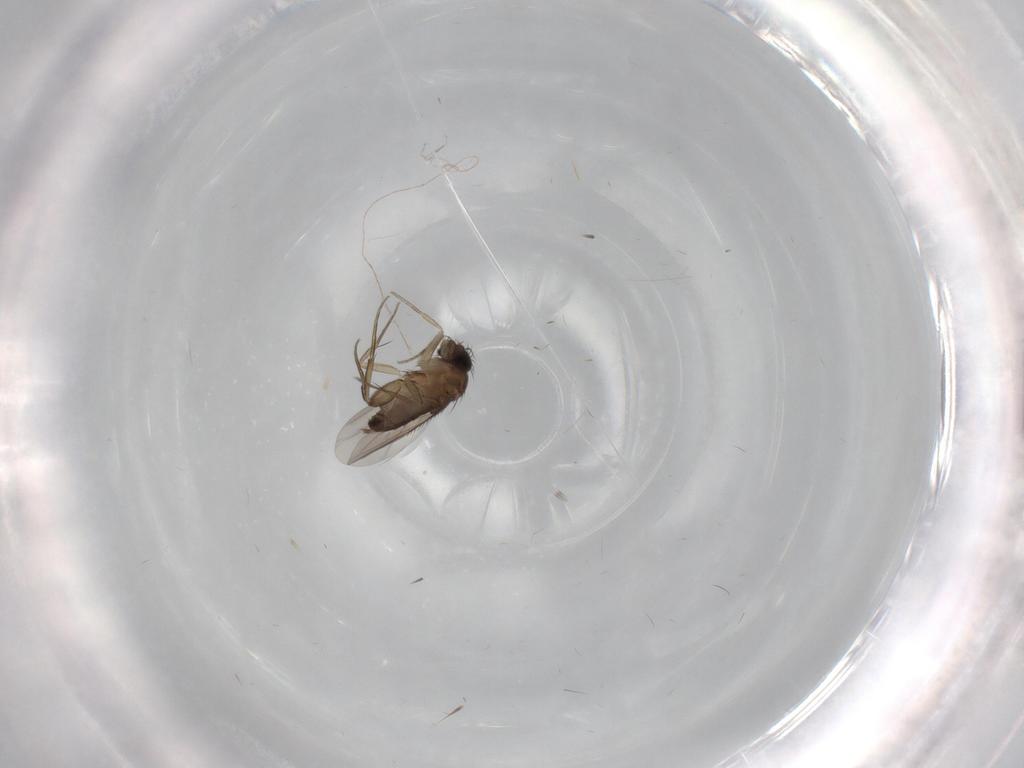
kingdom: Animalia
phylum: Arthropoda
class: Insecta
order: Diptera
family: Phoridae
